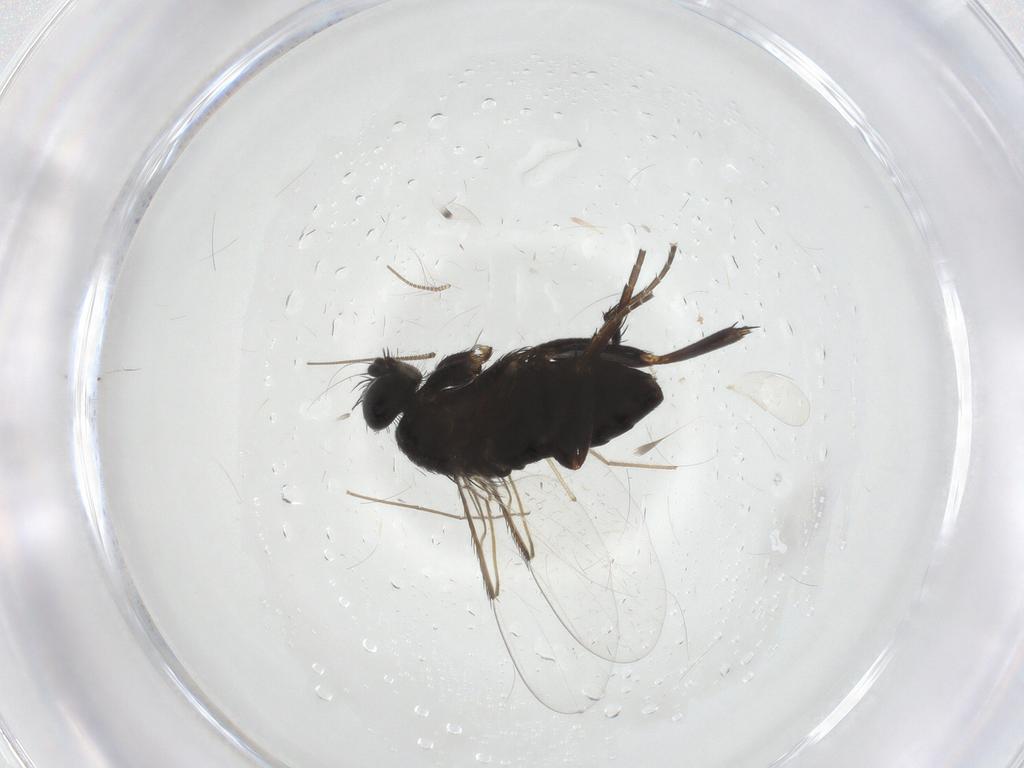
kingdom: Animalia
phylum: Arthropoda
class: Insecta
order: Diptera
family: Phoridae
